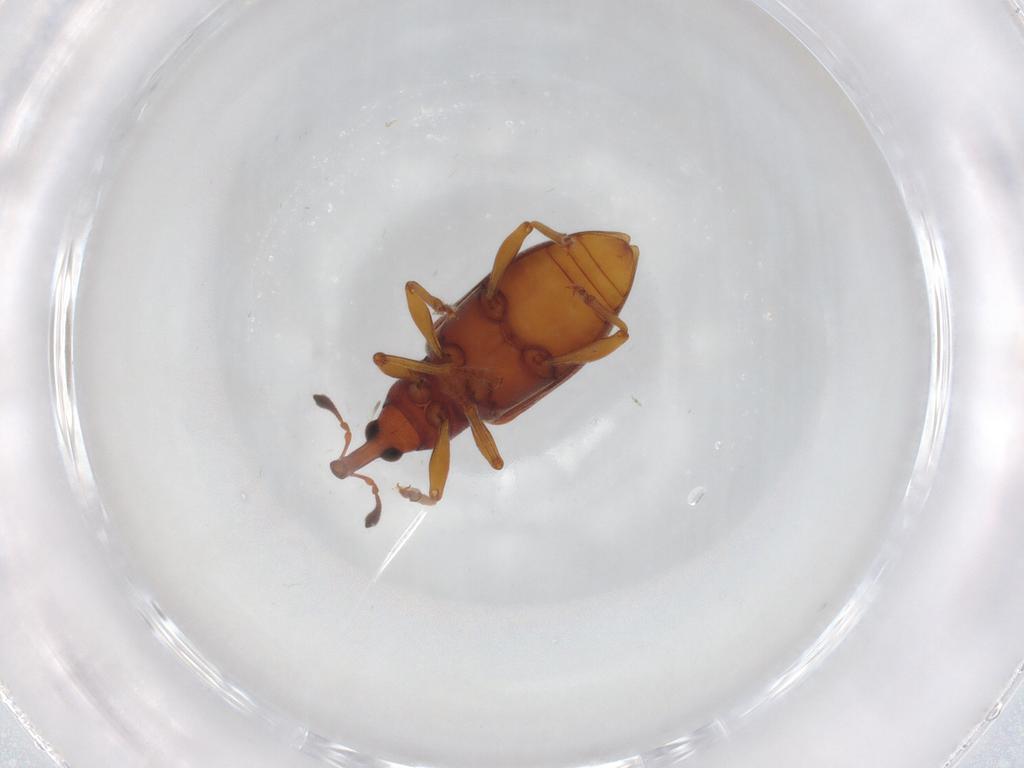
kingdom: Animalia
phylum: Arthropoda
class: Insecta
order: Coleoptera
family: Curculionidae
